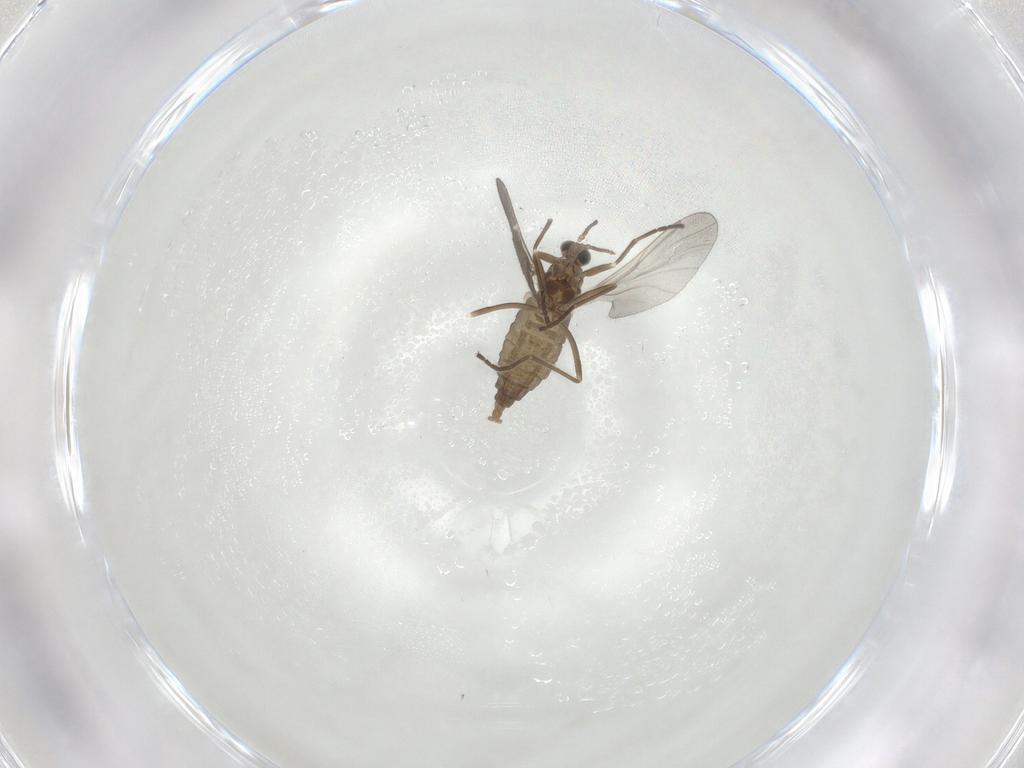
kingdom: Animalia
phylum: Arthropoda
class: Insecta
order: Diptera
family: Cecidomyiidae
